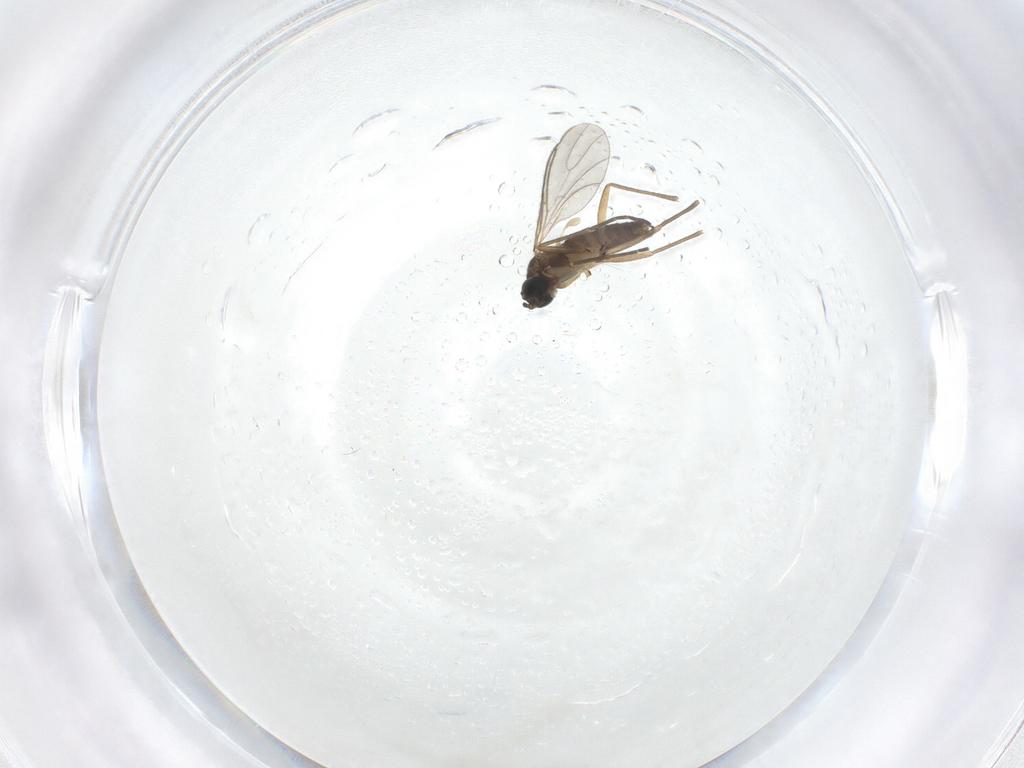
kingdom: Animalia
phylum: Arthropoda
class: Insecta
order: Diptera
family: Sciaridae
